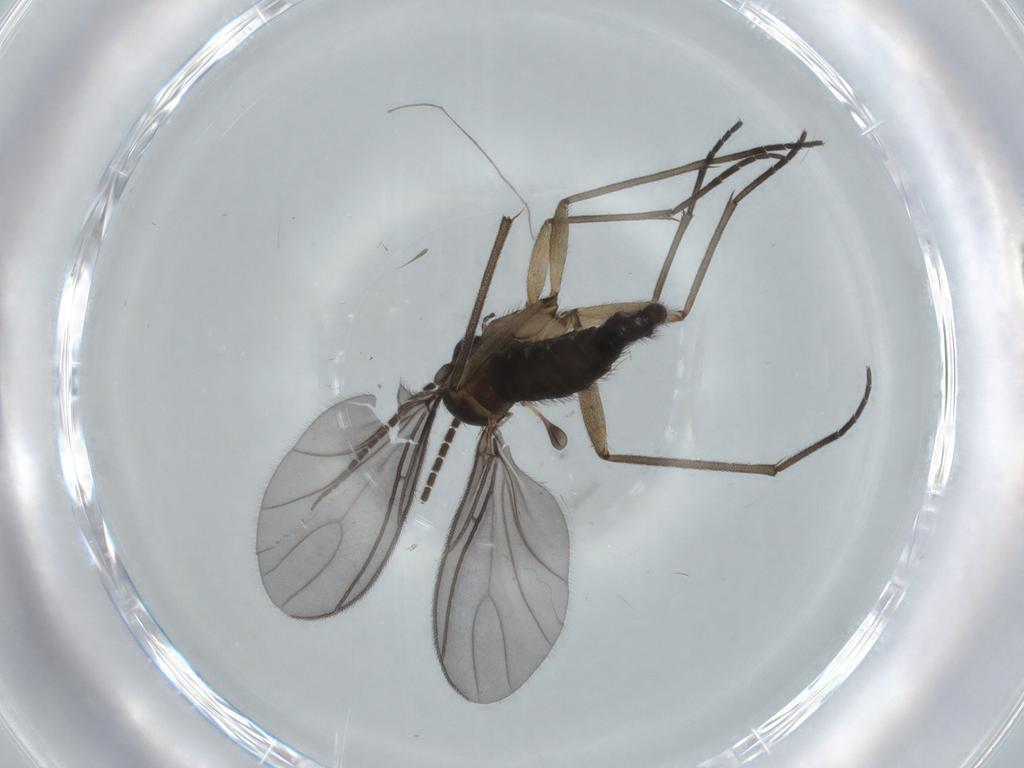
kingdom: Animalia
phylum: Arthropoda
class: Insecta
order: Diptera
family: Sciaridae
